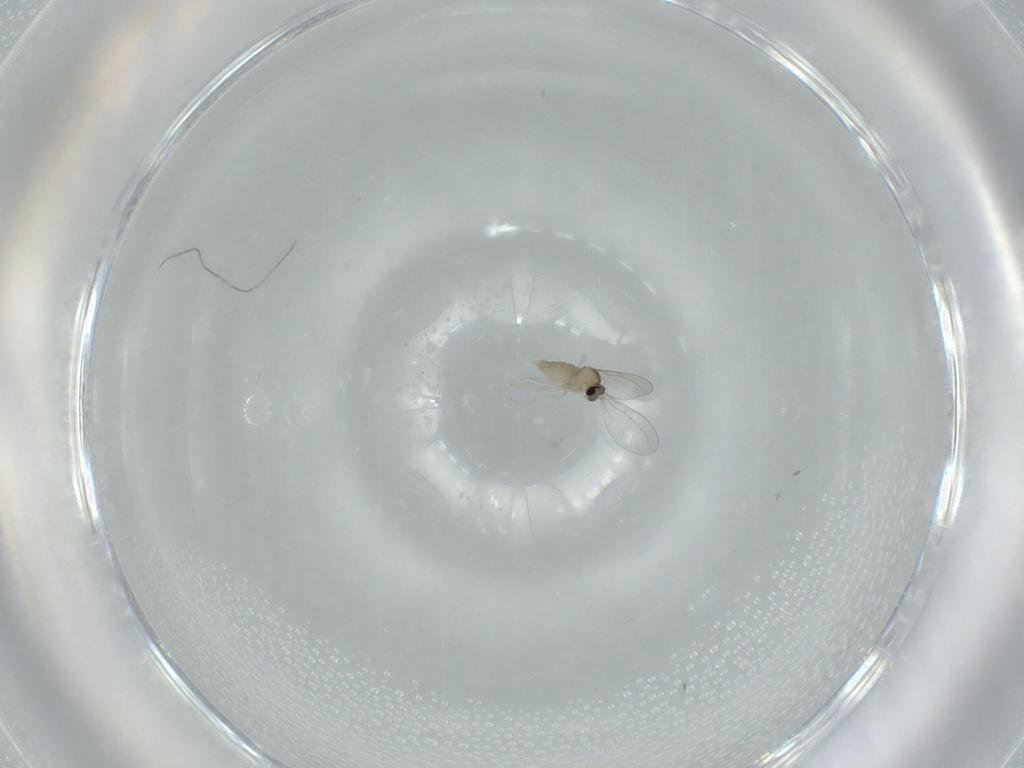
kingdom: Animalia
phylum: Arthropoda
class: Insecta
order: Diptera
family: Cecidomyiidae
